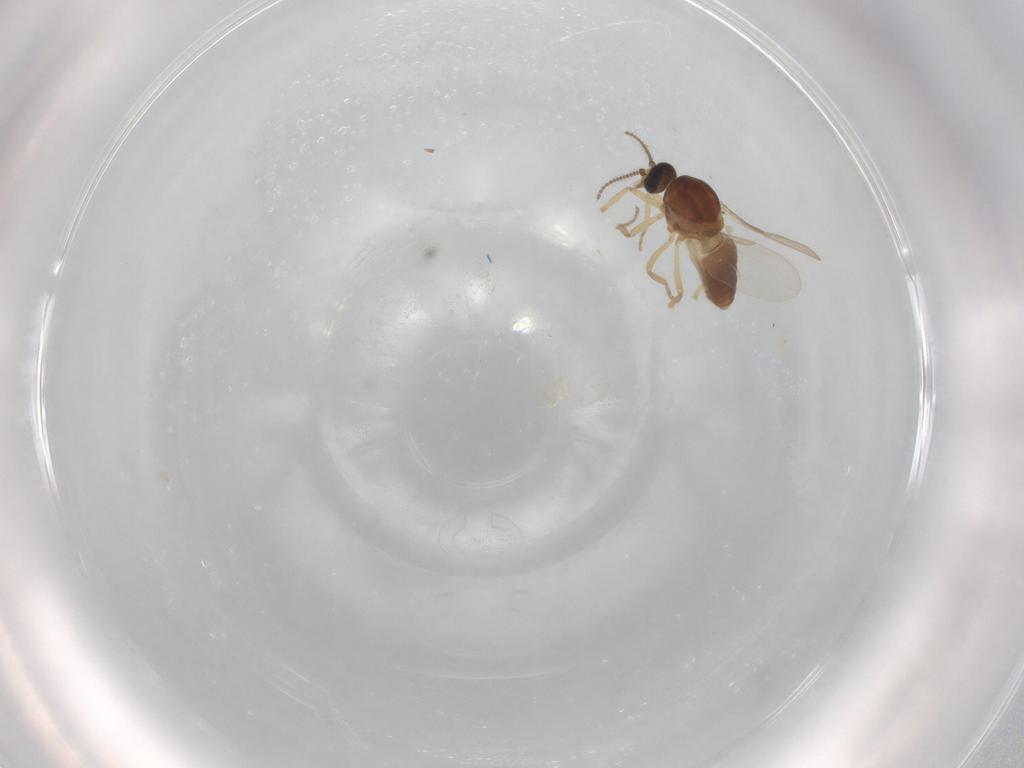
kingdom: Animalia
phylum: Arthropoda
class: Insecta
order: Diptera
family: Ceratopogonidae
